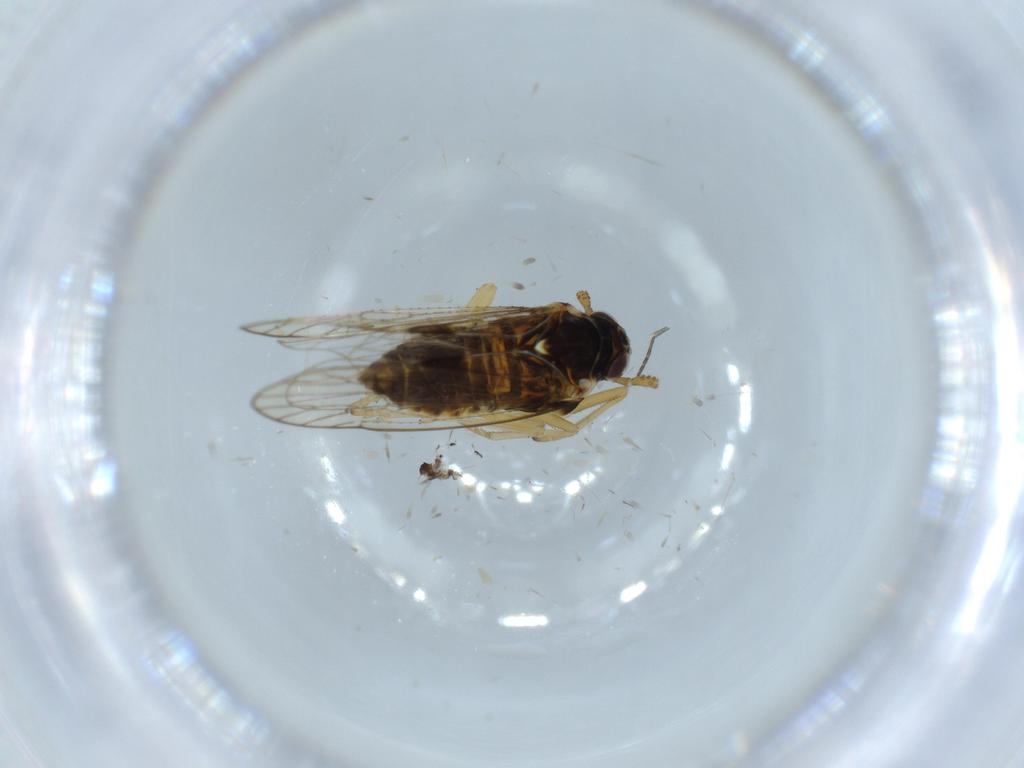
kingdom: Animalia
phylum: Arthropoda
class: Insecta
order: Diptera
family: Sciaridae
